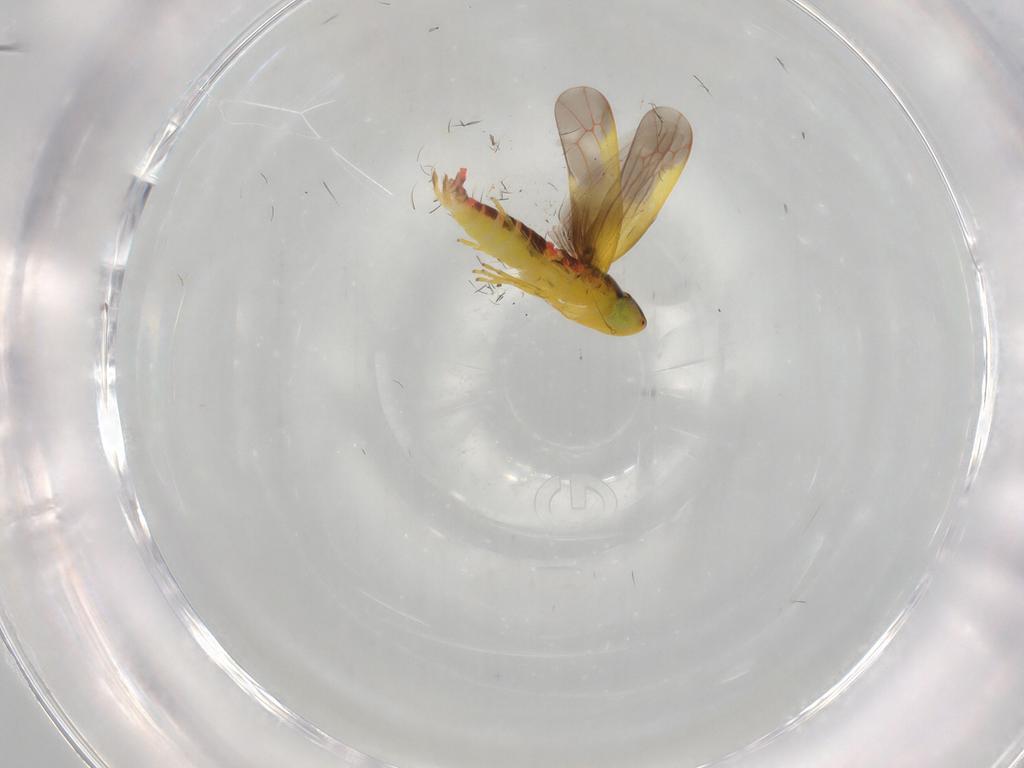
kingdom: Animalia
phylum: Arthropoda
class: Insecta
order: Hemiptera
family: Cicadellidae
